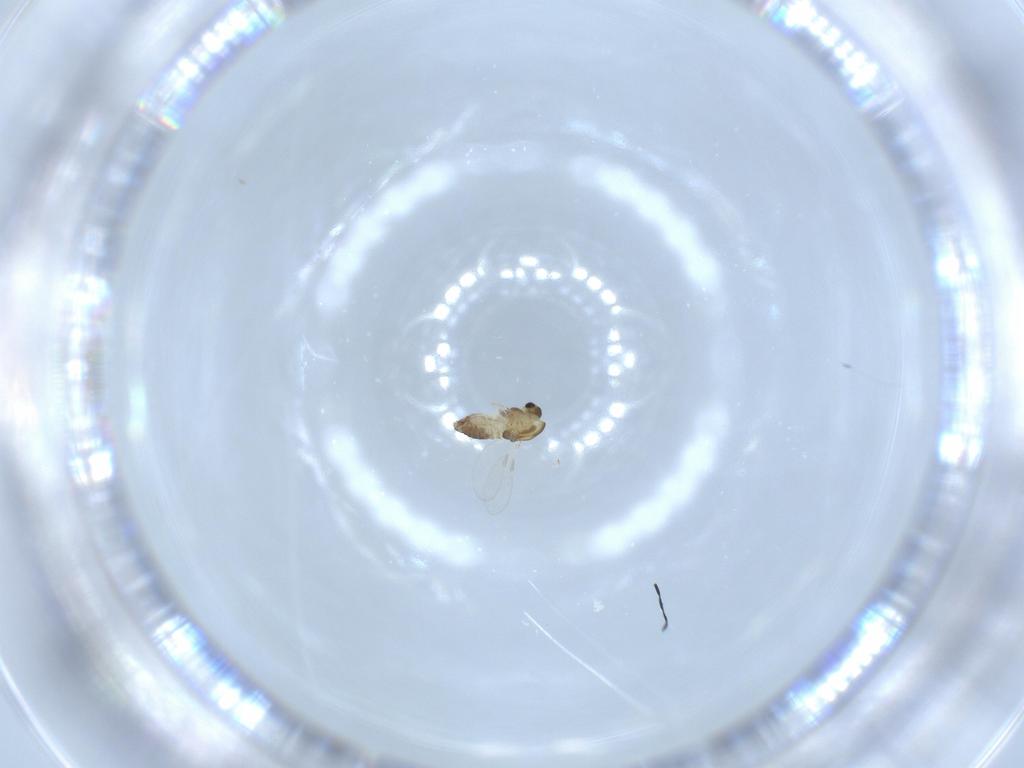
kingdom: Animalia
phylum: Arthropoda
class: Insecta
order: Diptera
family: Chironomidae
